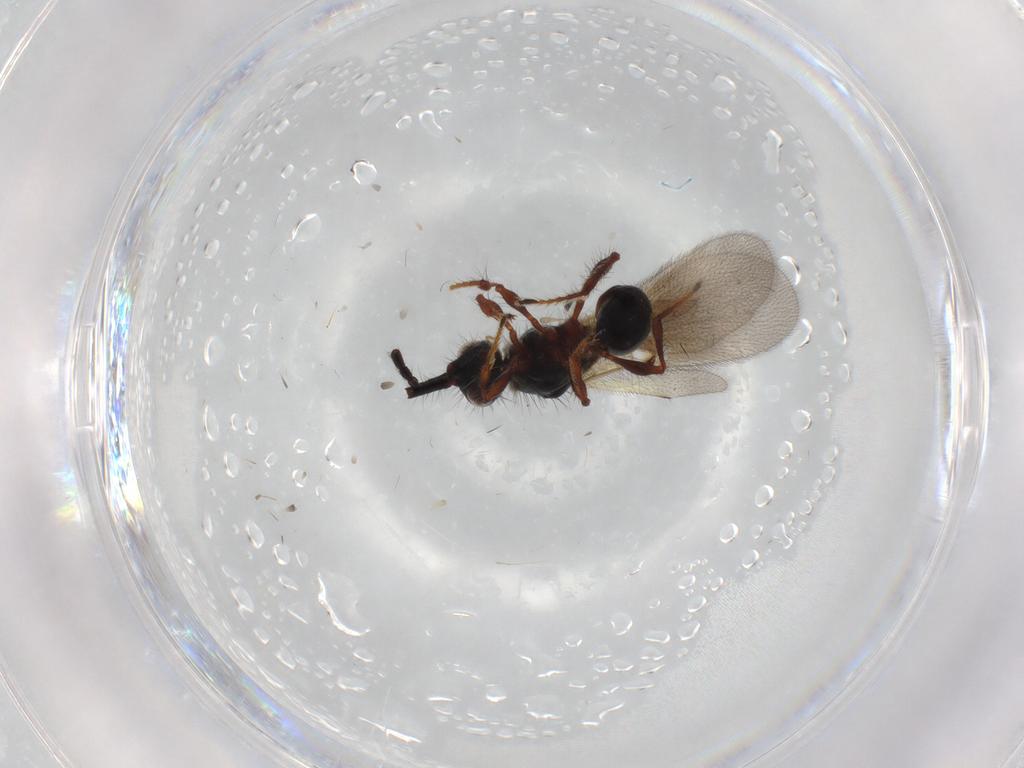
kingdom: Animalia
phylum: Arthropoda
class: Insecta
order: Hymenoptera
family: Diapriidae
